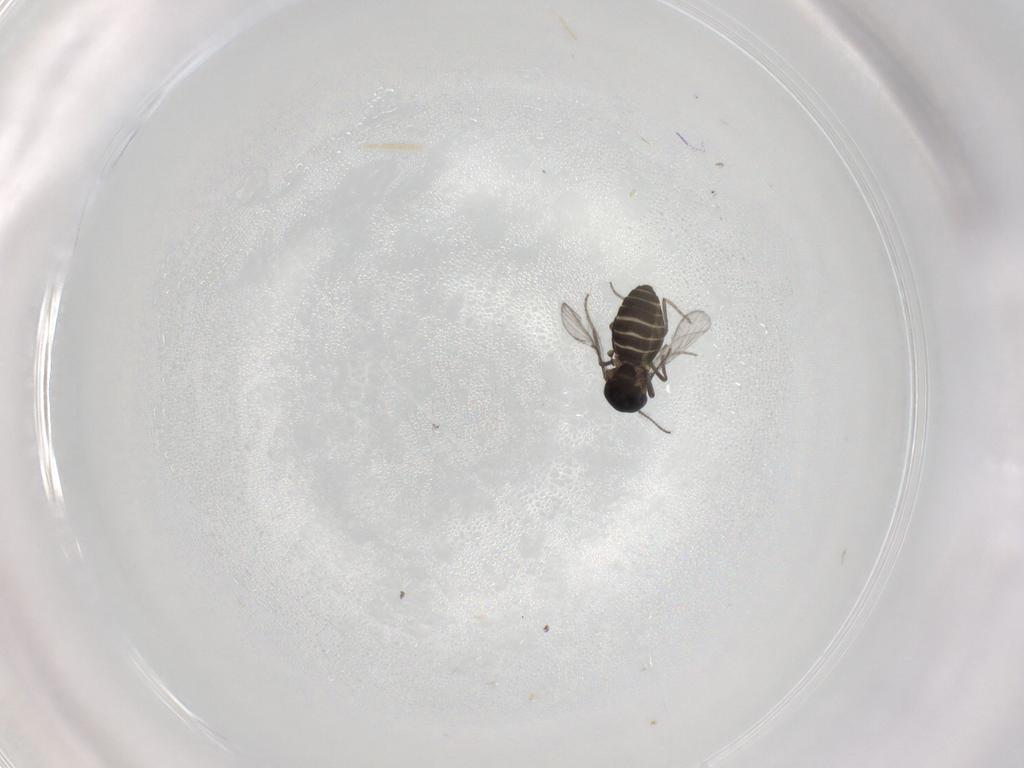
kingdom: Animalia
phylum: Arthropoda
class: Insecta
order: Diptera
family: Ceratopogonidae
